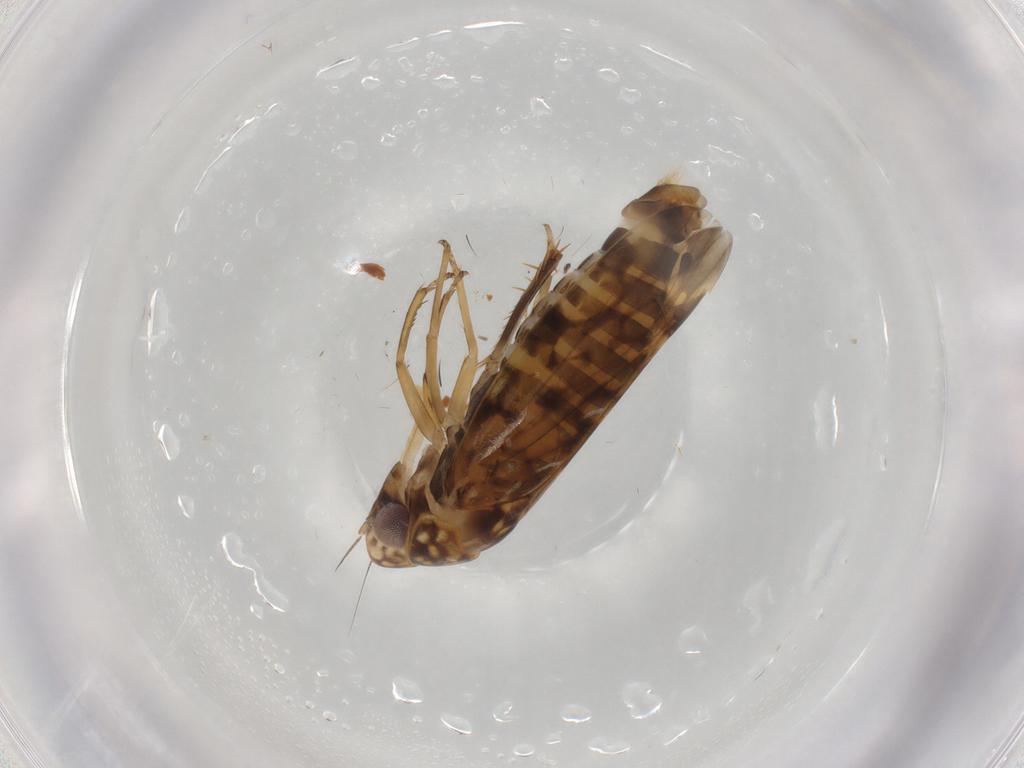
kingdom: Animalia
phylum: Arthropoda
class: Insecta
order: Hemiptera
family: Cicadellidae
